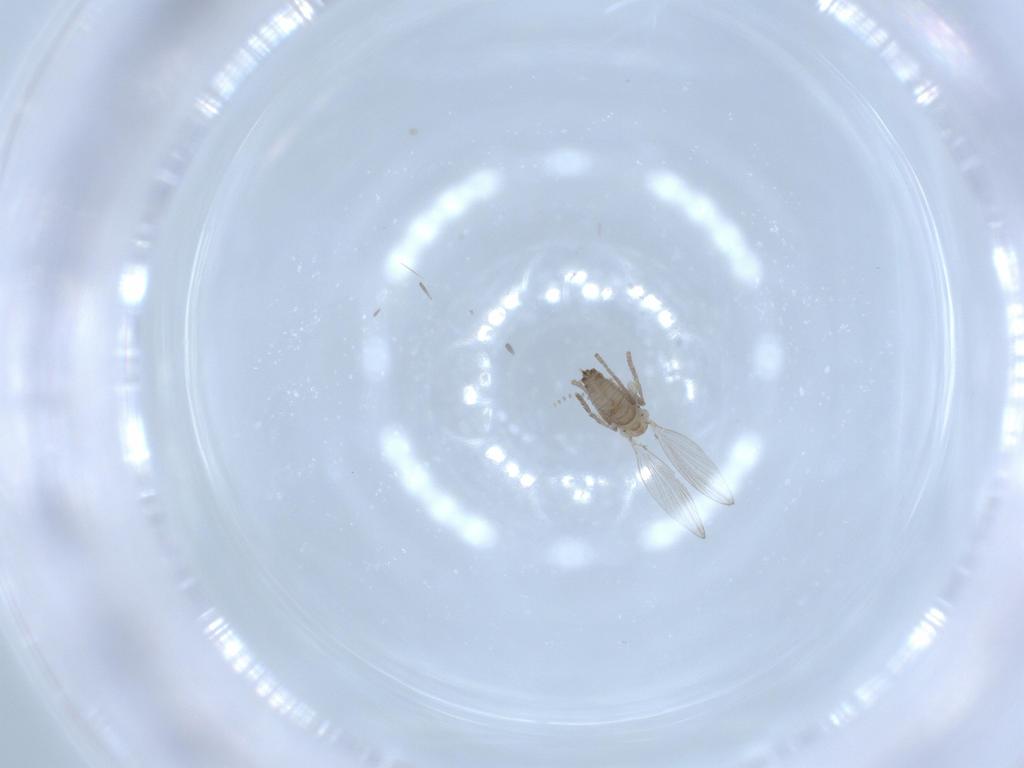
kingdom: Animalia
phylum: Arthropoda
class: Insecta
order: Diptera
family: Psychodidae
